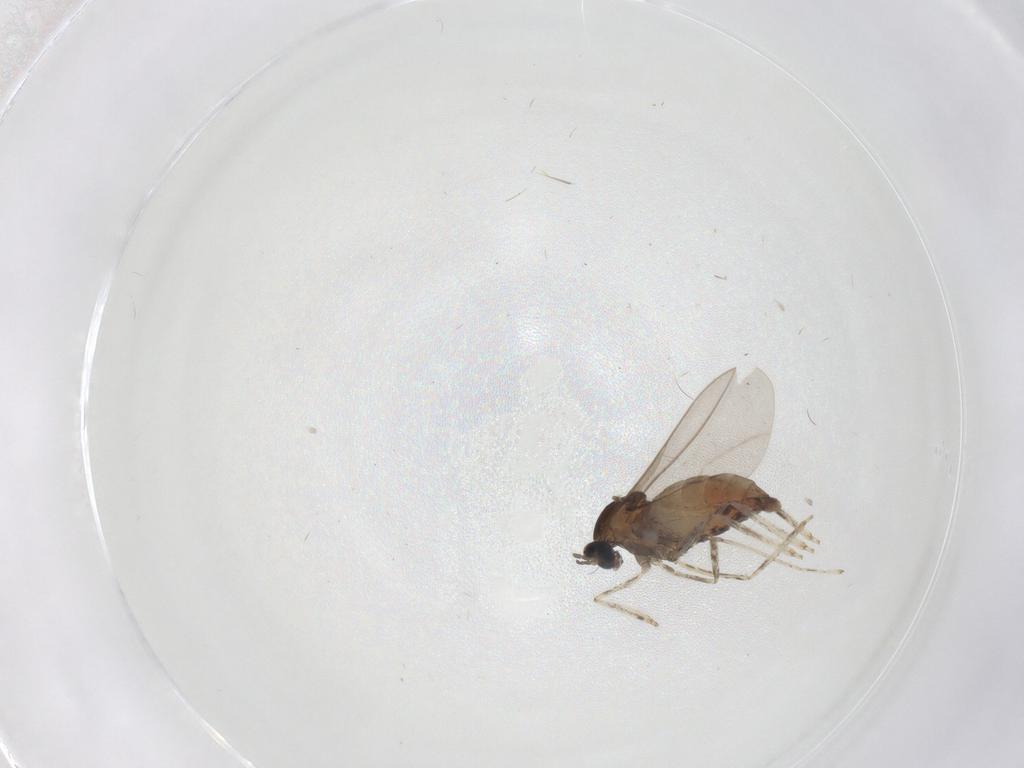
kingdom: Animalia
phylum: Arthropoda
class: Insecta
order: Diptera
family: Limoniidae
